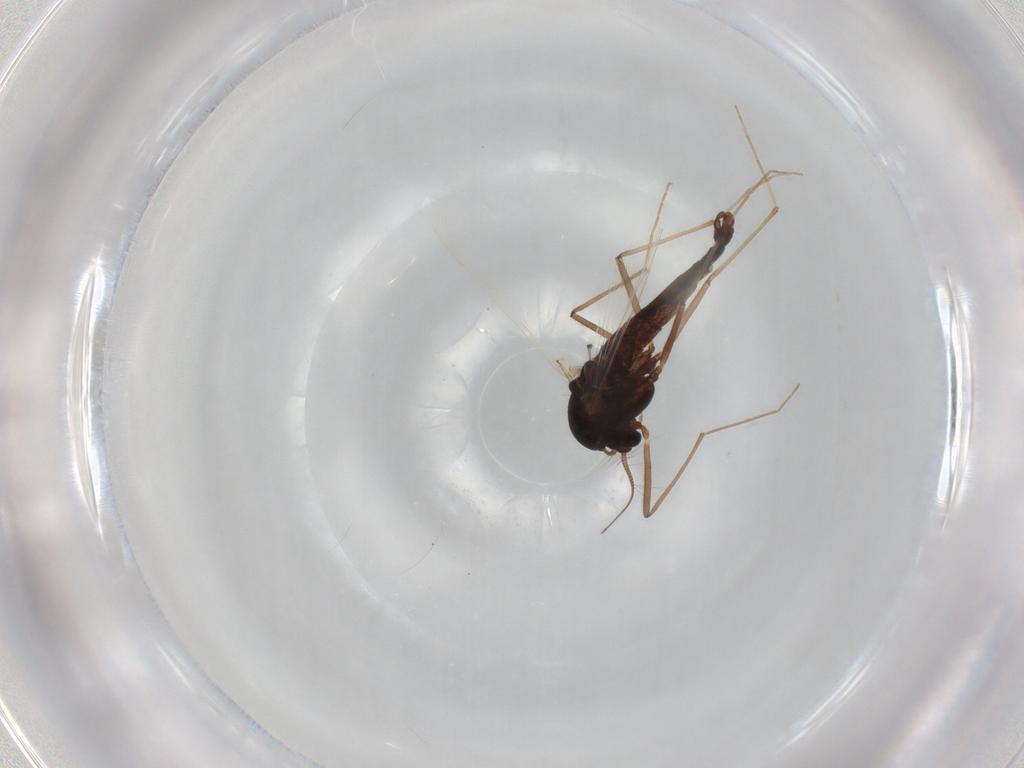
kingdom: Animalia
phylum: Arthropoda
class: Insecta
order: Diptera
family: Chironomidae
